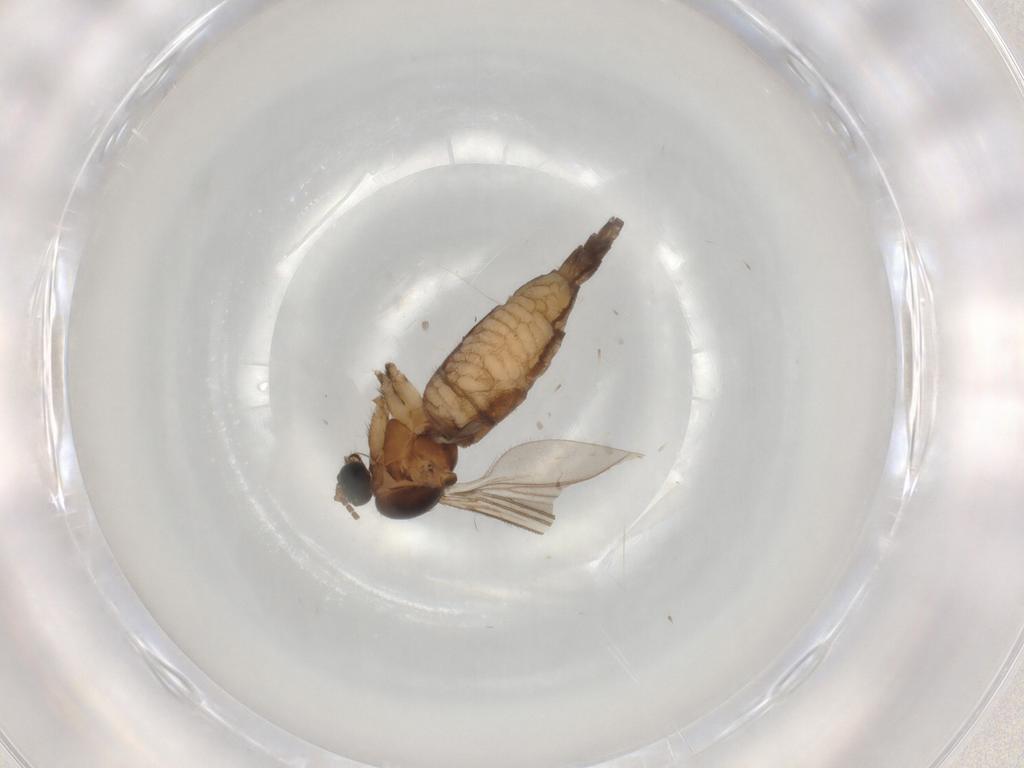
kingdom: Animalia
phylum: Arthropoda
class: Insecta
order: Diptera
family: Sciaridae
